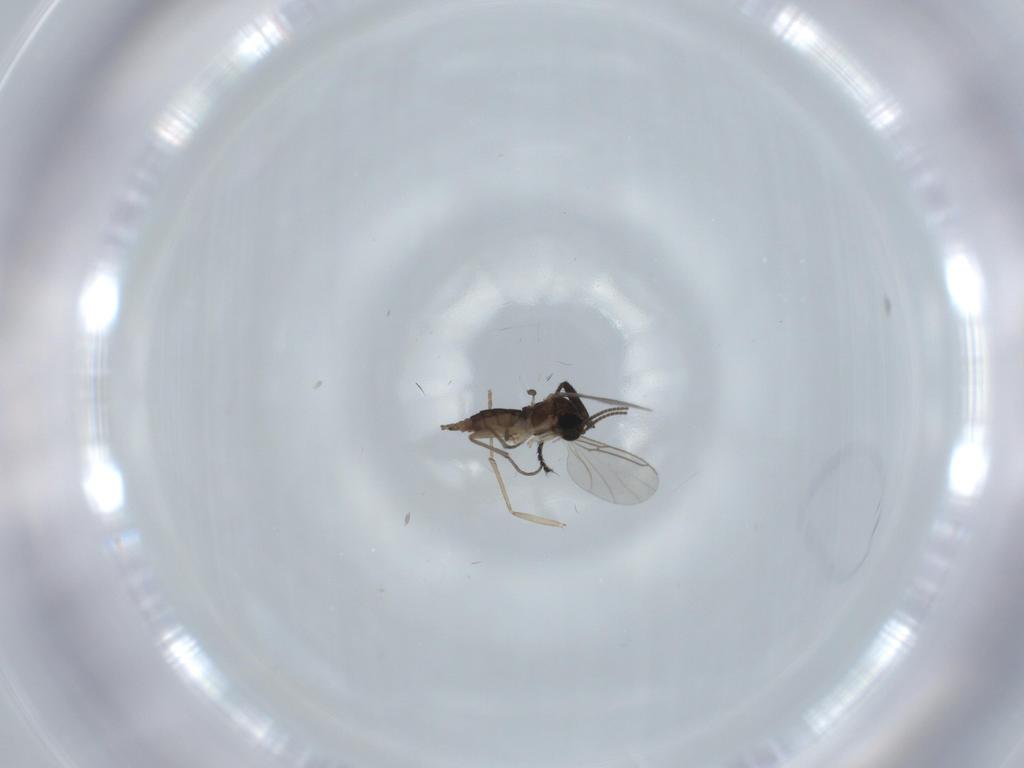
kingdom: Animalia
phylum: Arthropoda
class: Insecta
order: Diptera
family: Sciaridae
